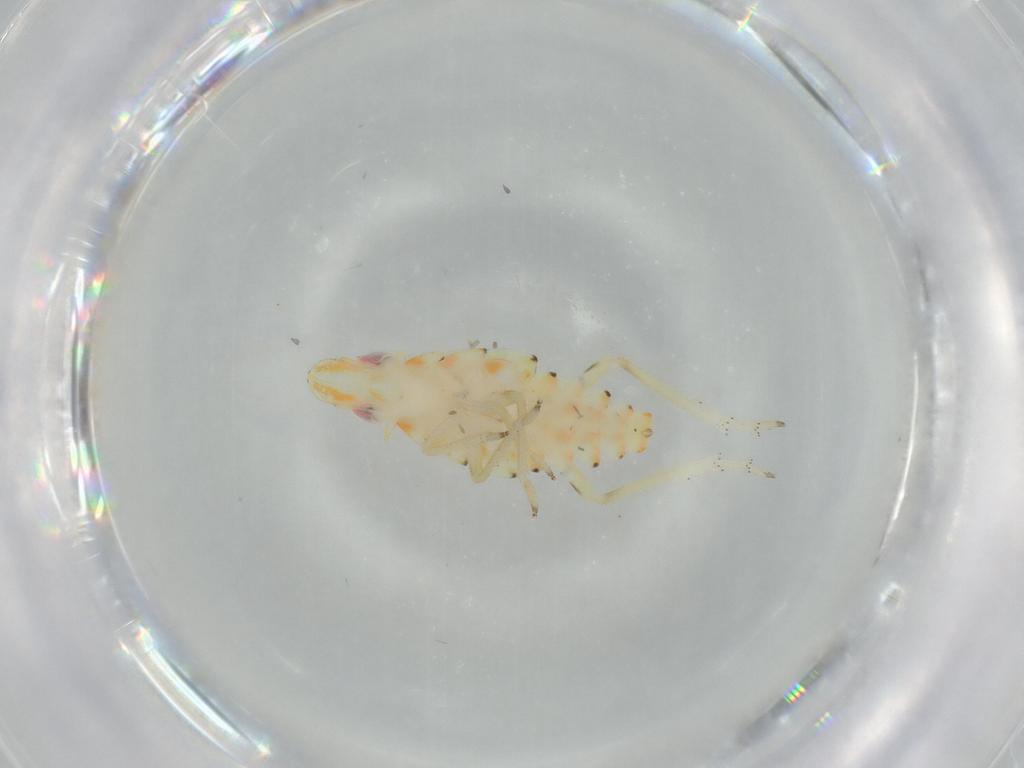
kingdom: Animalia
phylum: Arthropoda
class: Insecta
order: Hemiptera
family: Tropiduchidae
